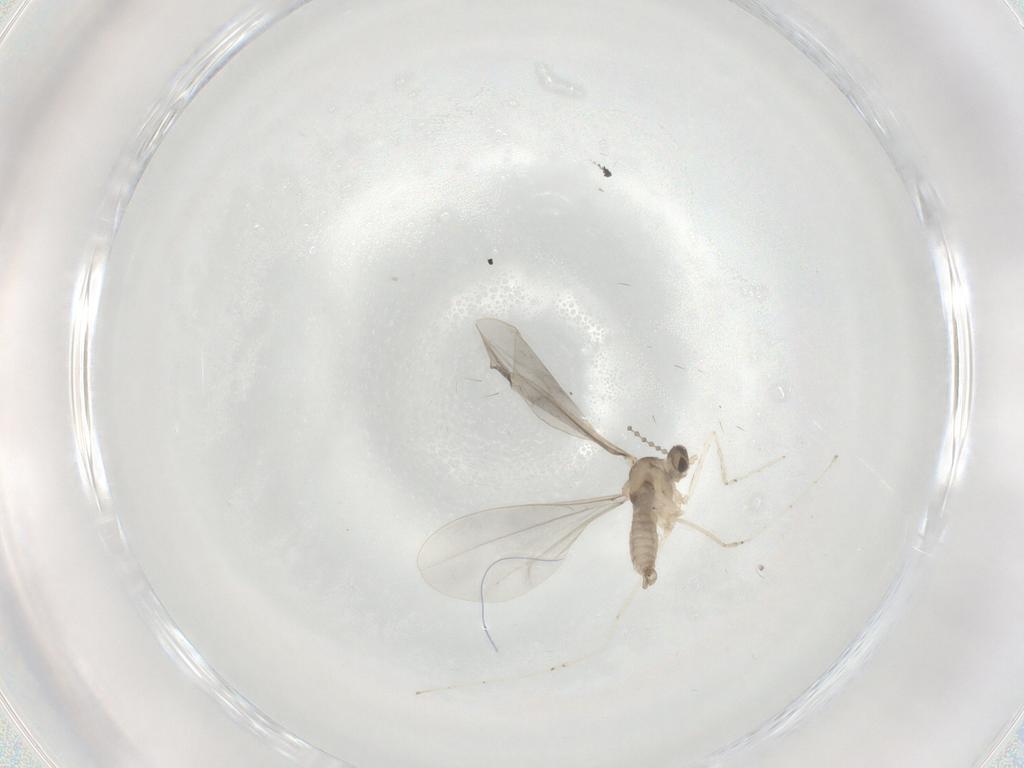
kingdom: Animalia
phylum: Arthropoda
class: Insecta
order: Diptera
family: Cecidomyiidae
